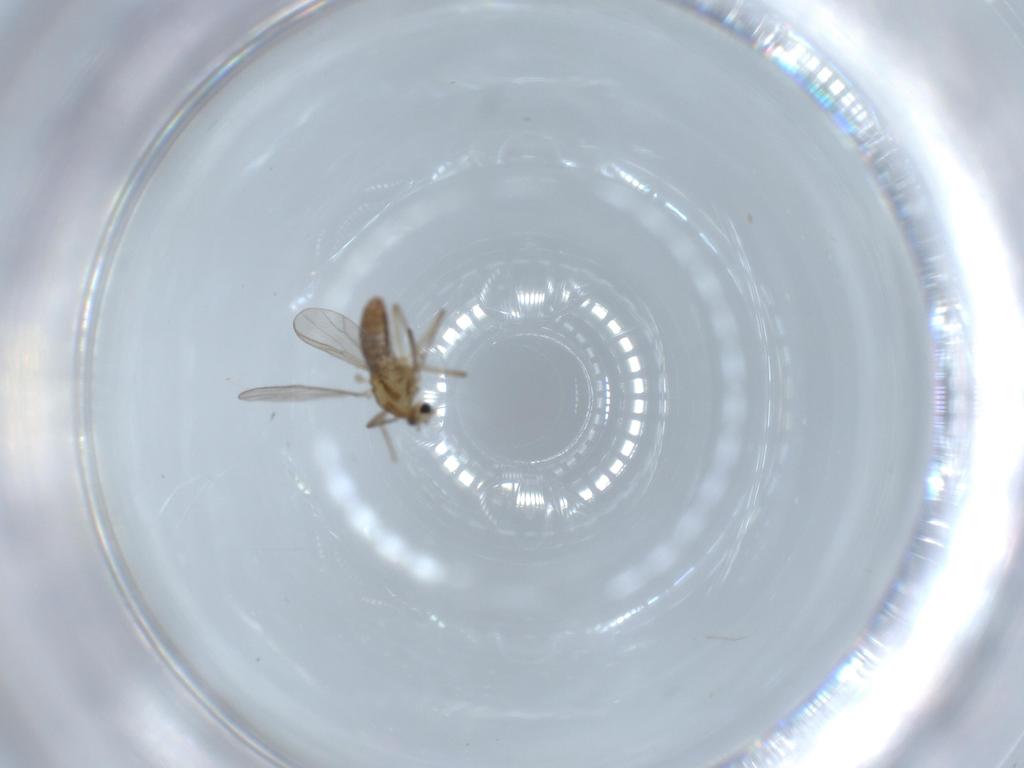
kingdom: Animalia
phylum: Arthropoda
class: Insecta
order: Diptera
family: Chironomidae
